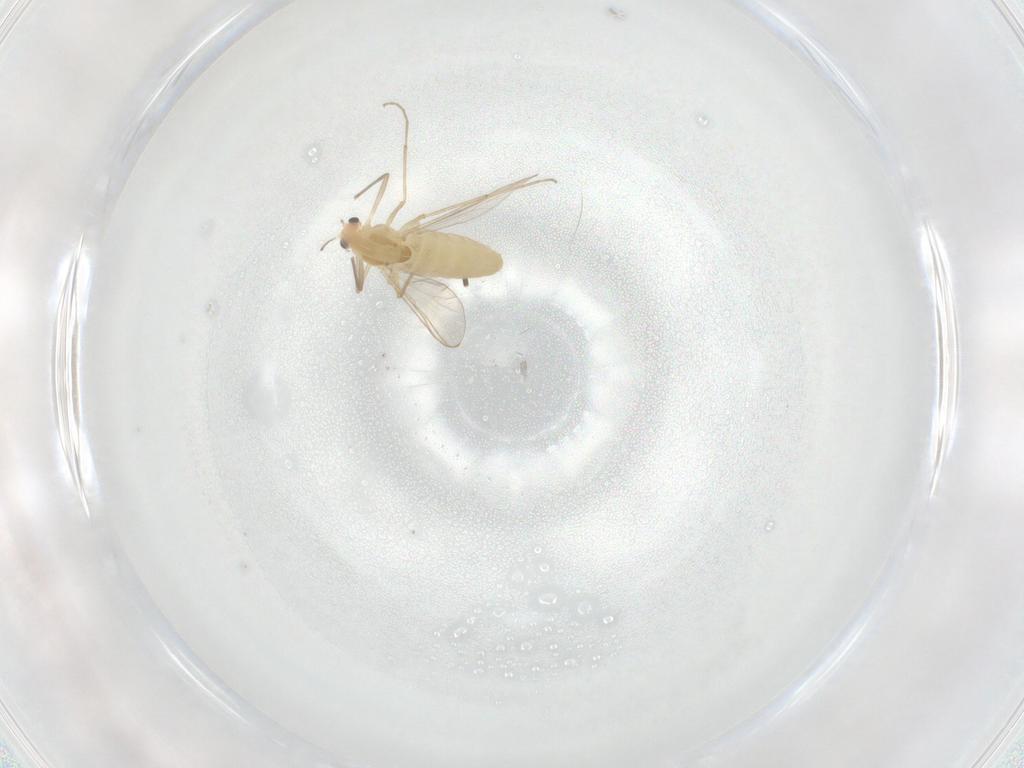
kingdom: Animalia
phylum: Arthropoda
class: Insecta
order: Diptera
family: Chironomidae
